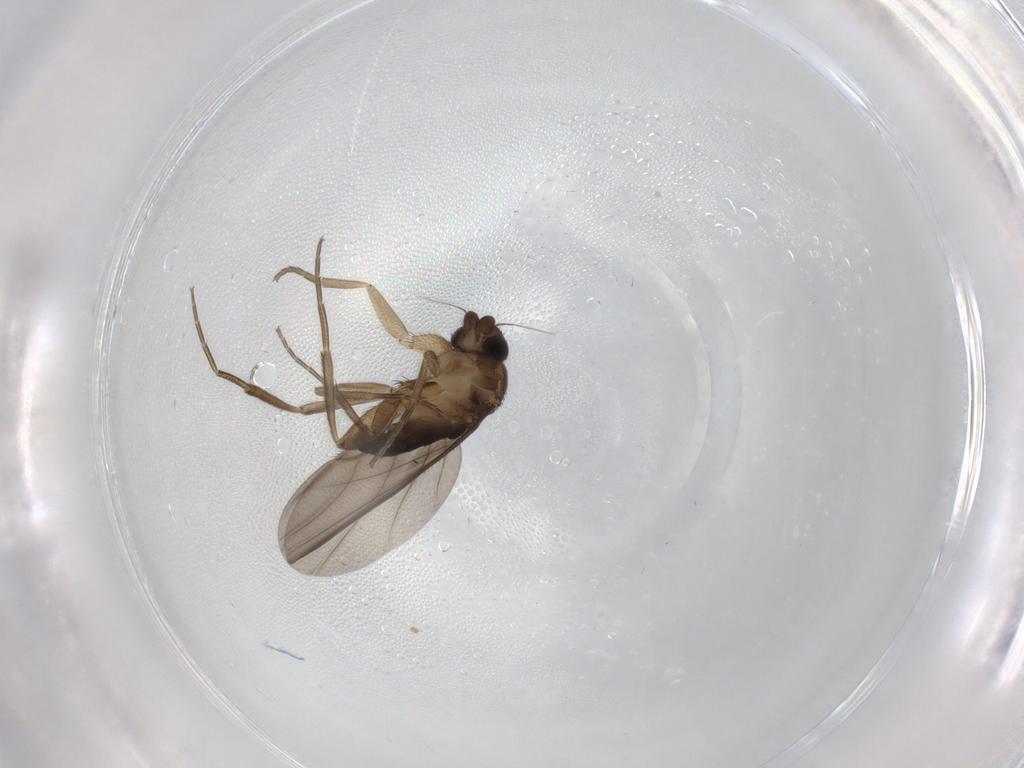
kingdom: Animalia
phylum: Arthropoda
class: Insecta
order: Diptera
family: Phoridae
